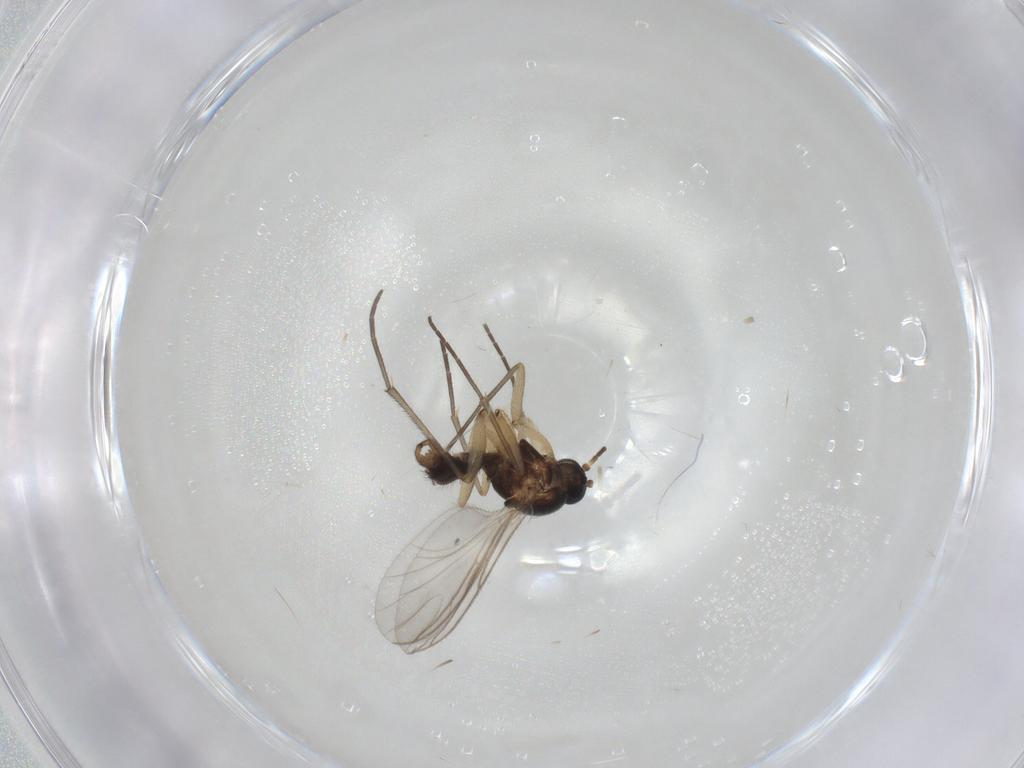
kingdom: Animalia
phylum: Arthropoda
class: Insecta
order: Diptera
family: Sciaridae
